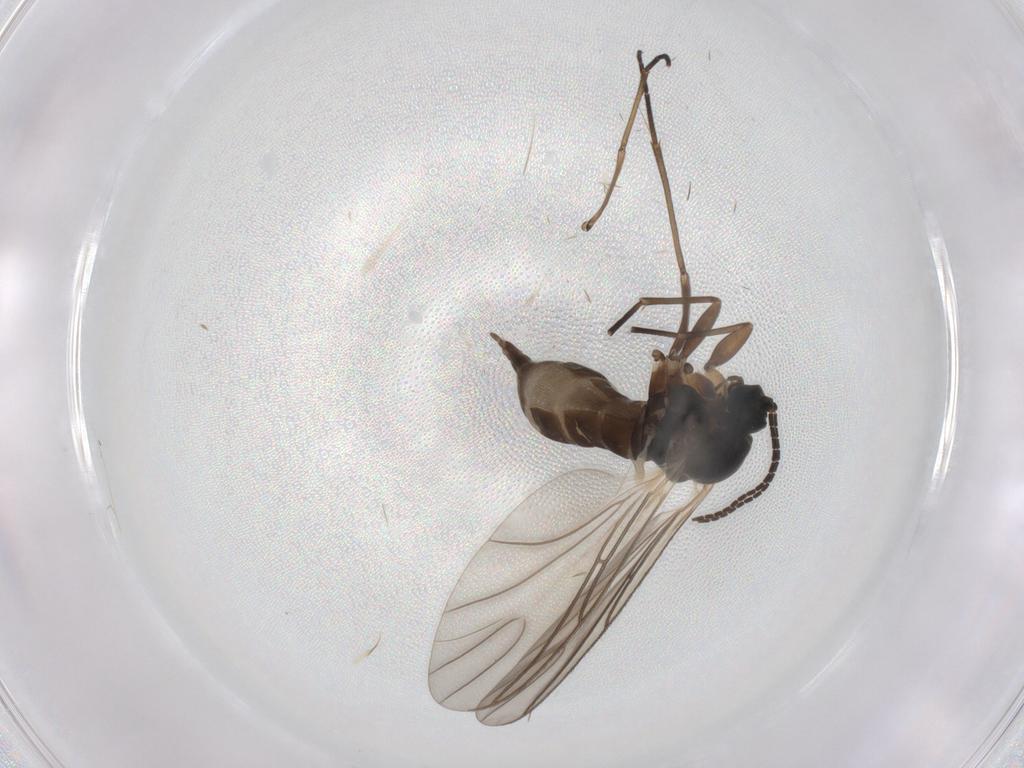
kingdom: Animalia
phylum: Arthropoda
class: Insecta
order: Diptera
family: Sciaridae
